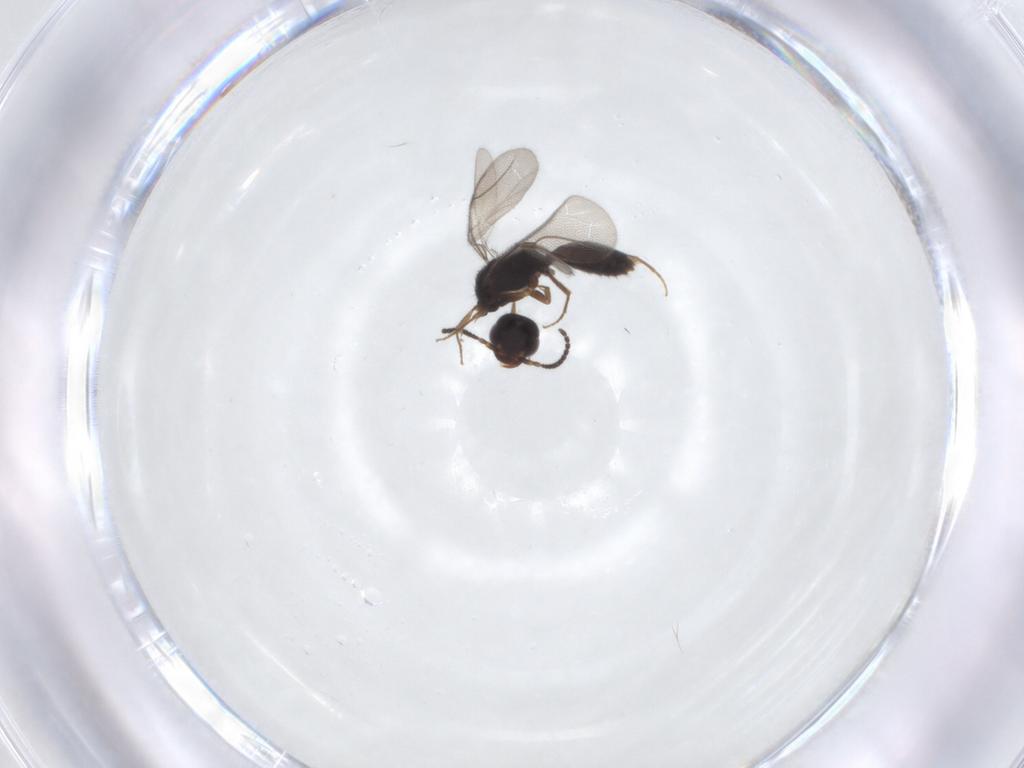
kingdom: Animalia
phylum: Arthropoda
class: Insecta
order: Hymenoptera
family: Bethylidae
